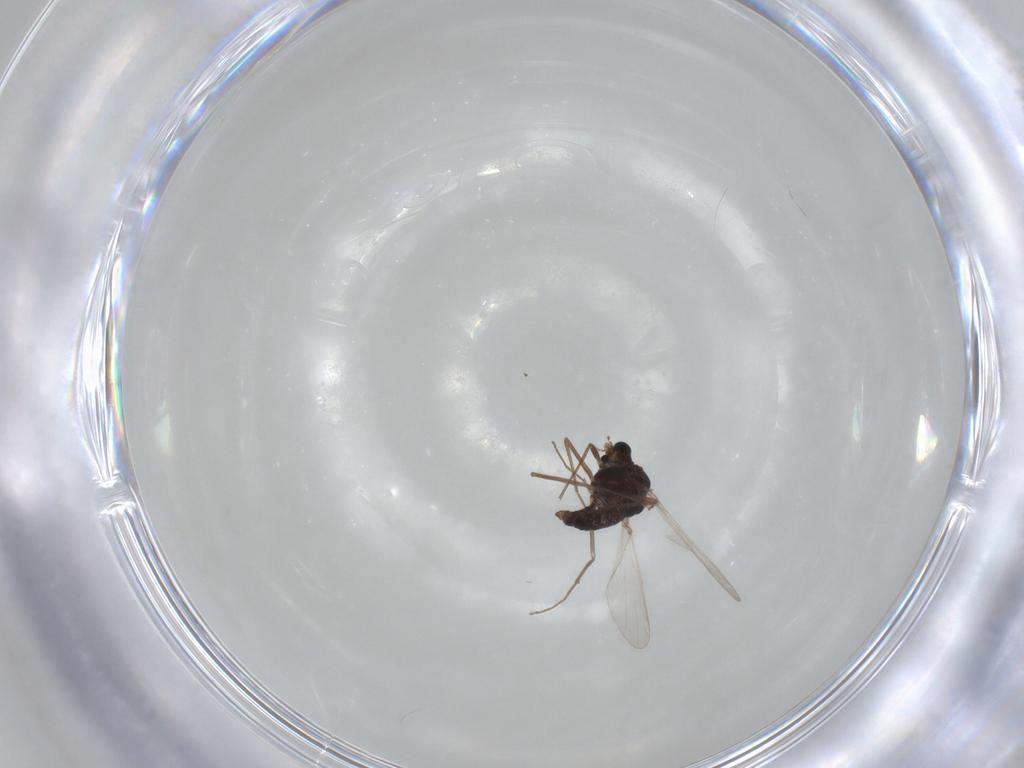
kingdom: Animalia
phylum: Arthropoda
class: Insecta
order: Diptera
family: Chironomidae
